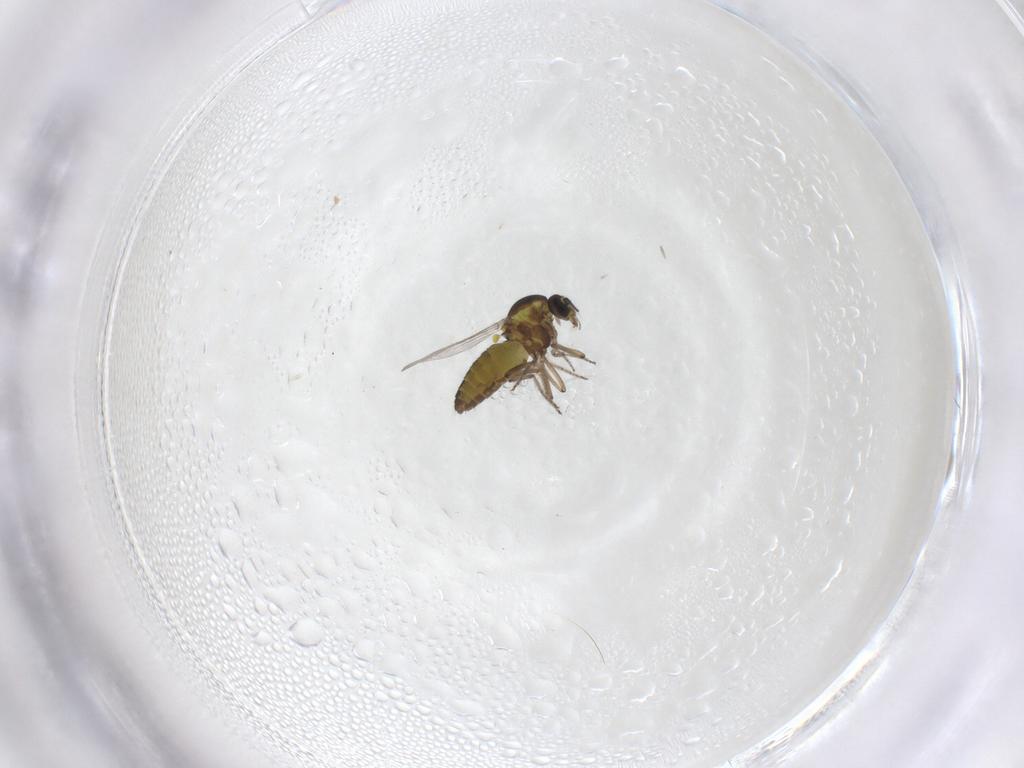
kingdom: Animalia
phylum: Arthropoda
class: Insecta
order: Diptera
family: Ceratopogonidae
